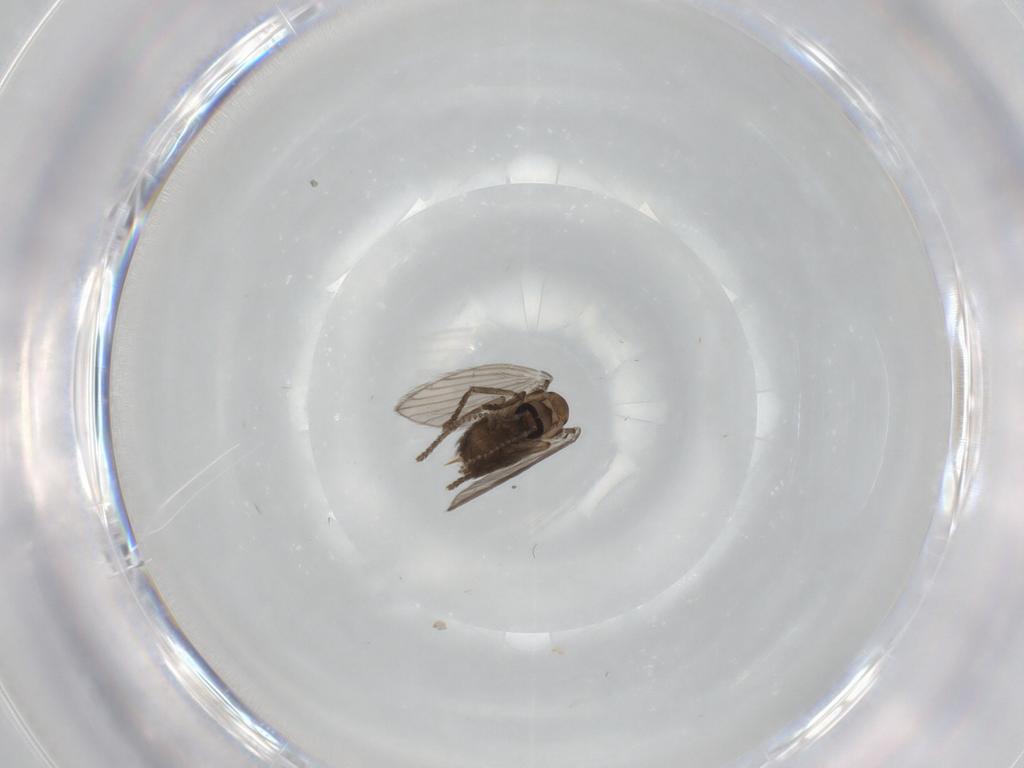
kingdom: Animalia
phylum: Arthropoda
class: Insecta
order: Diptera
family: Psychodidae
